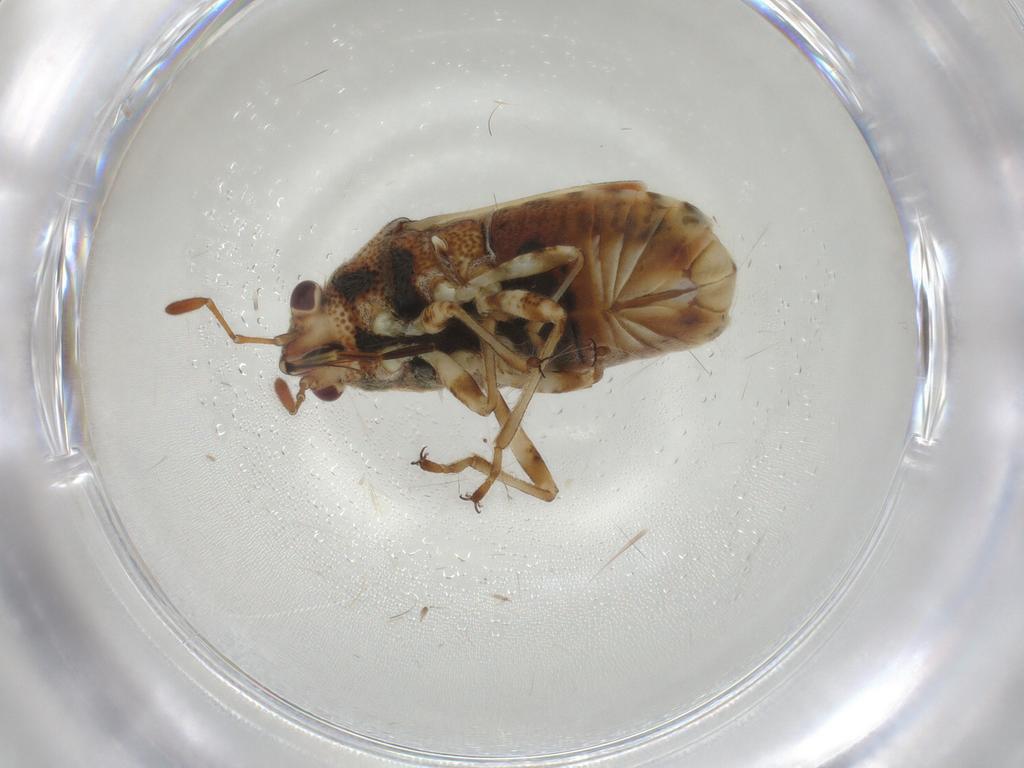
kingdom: Animalia
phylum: Arthropoda
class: Insecta
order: Hemiptera
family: Lygaeidae
